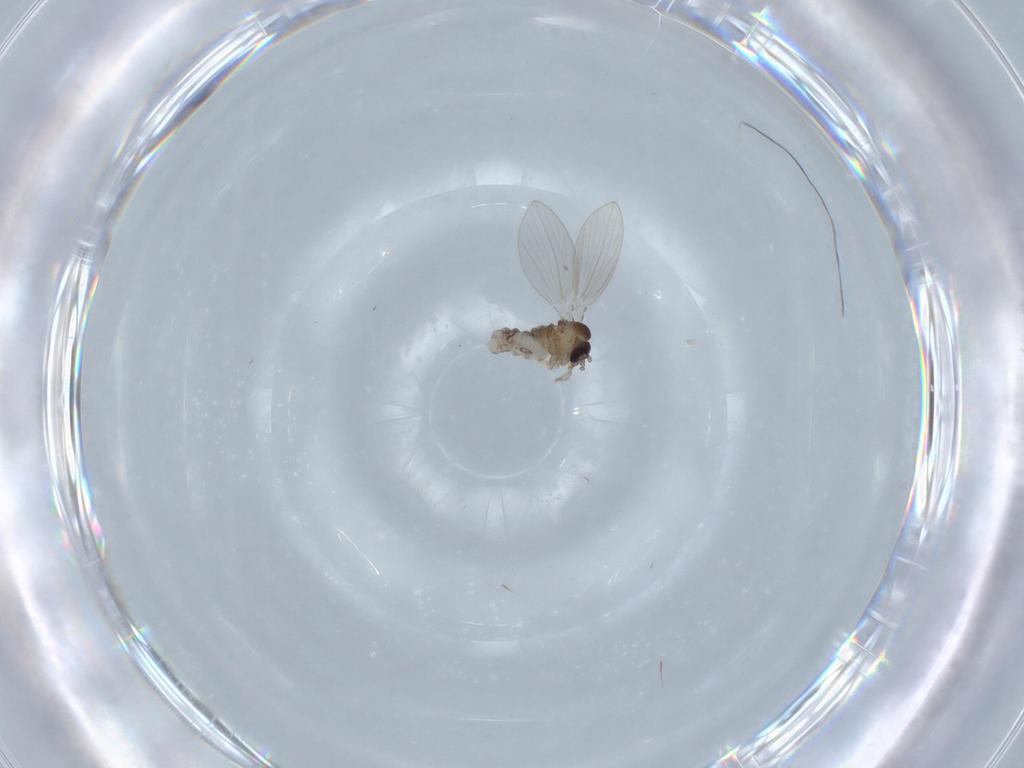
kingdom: Animalia
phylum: Arthropoda
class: Insecta
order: Diptera
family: Psychodidae
